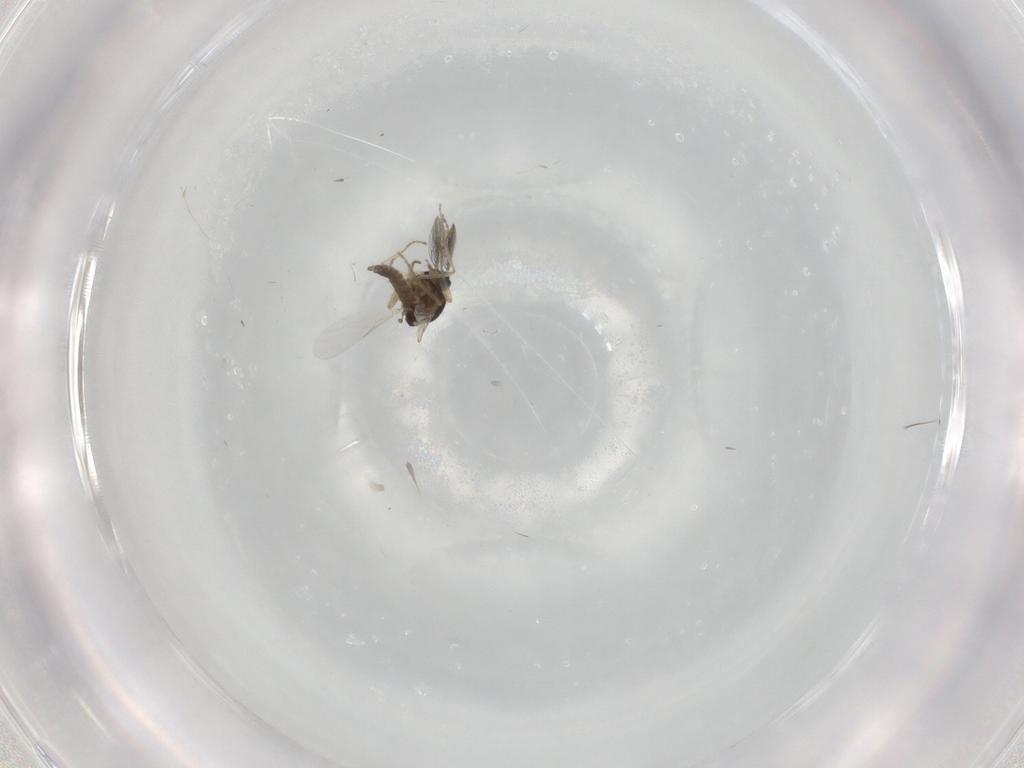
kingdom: Animalia
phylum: Arthropoda
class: Insecta
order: Diptera
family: Ceratopogonidae
